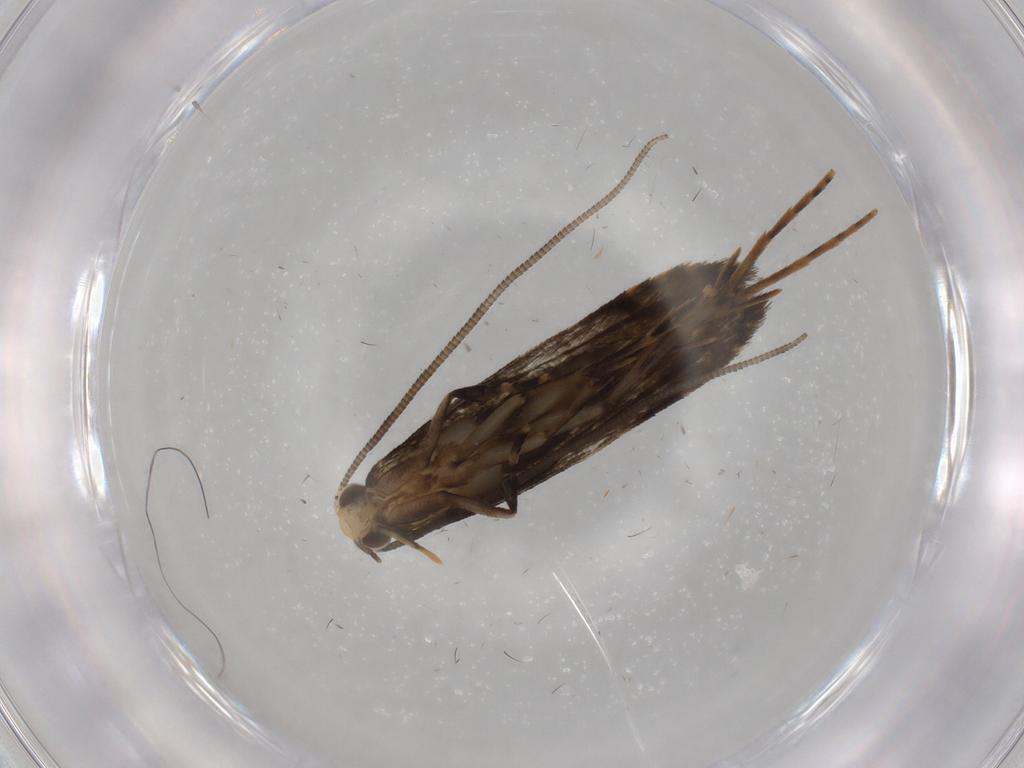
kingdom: Animalia
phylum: Arthropoda
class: Insecta
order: Lepidoptera
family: Tineidae
